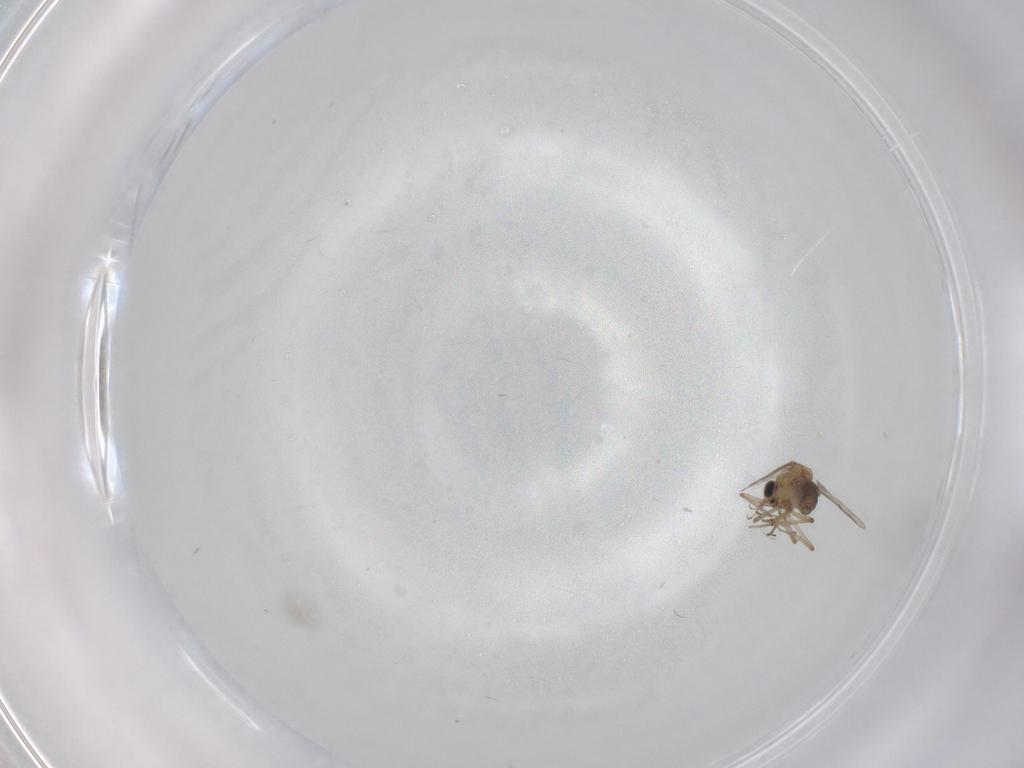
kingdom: Animalia
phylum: Arthropoda
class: Insecta
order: Diptera
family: Ceratopogonidae
